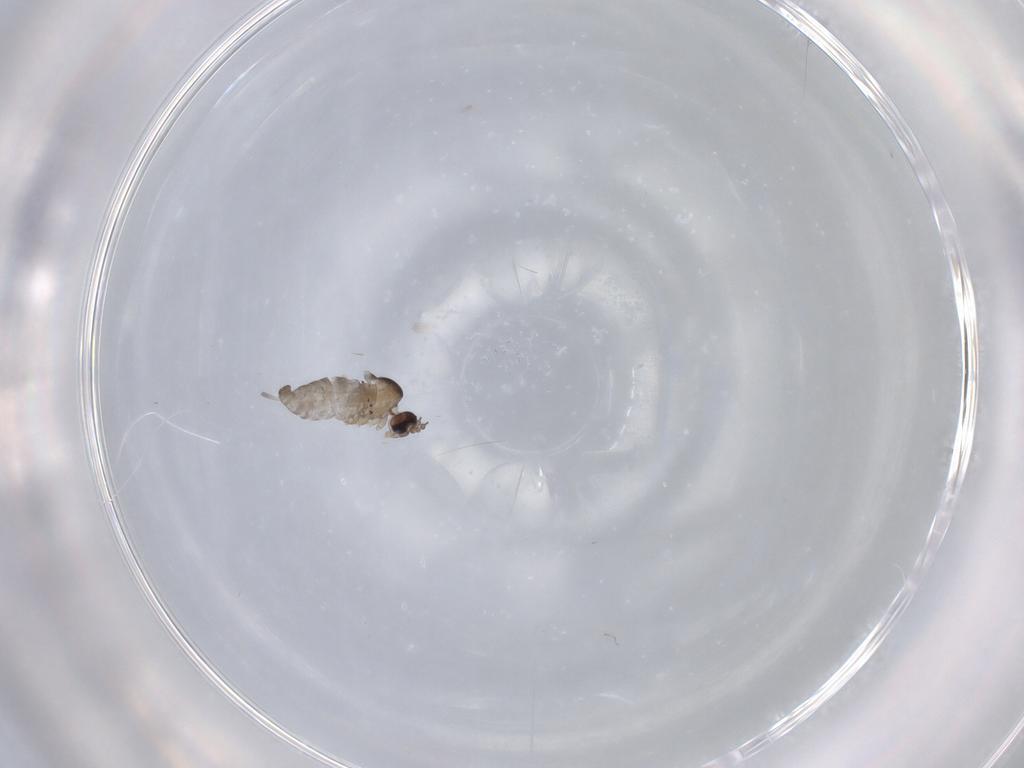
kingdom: Animalia
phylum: Arthropoda
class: Insecta
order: Diptera
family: Cecidomyiidae
